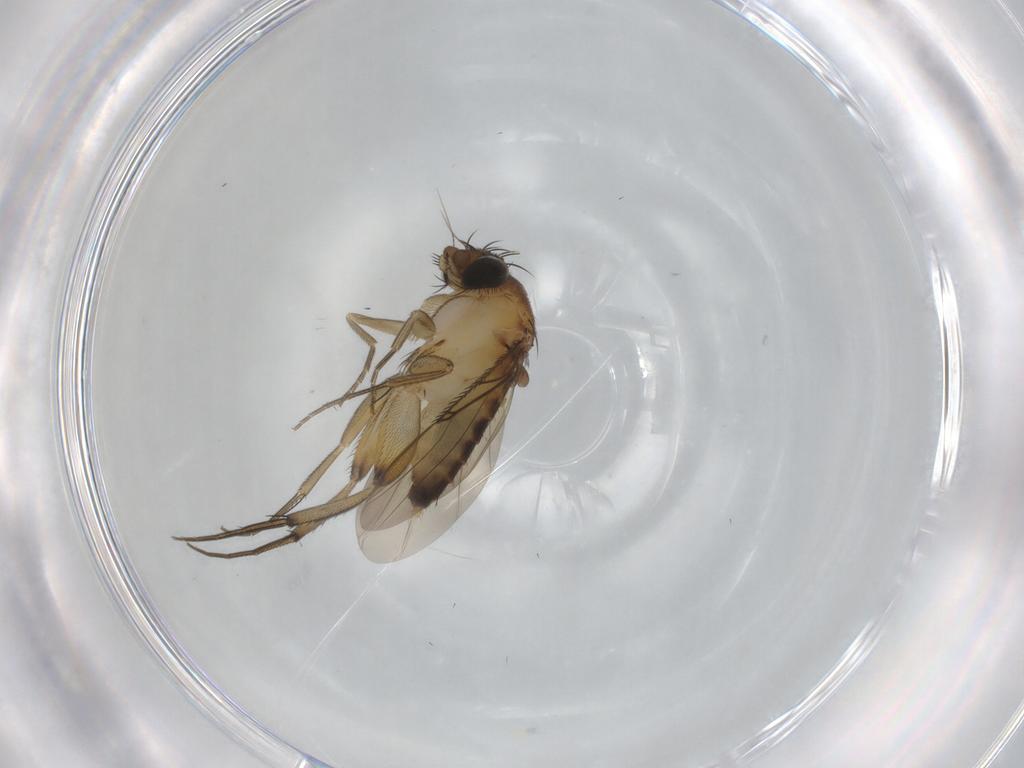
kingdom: Animalia
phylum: Arthropoda
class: Insecta
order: Diptera
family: Phoridae
